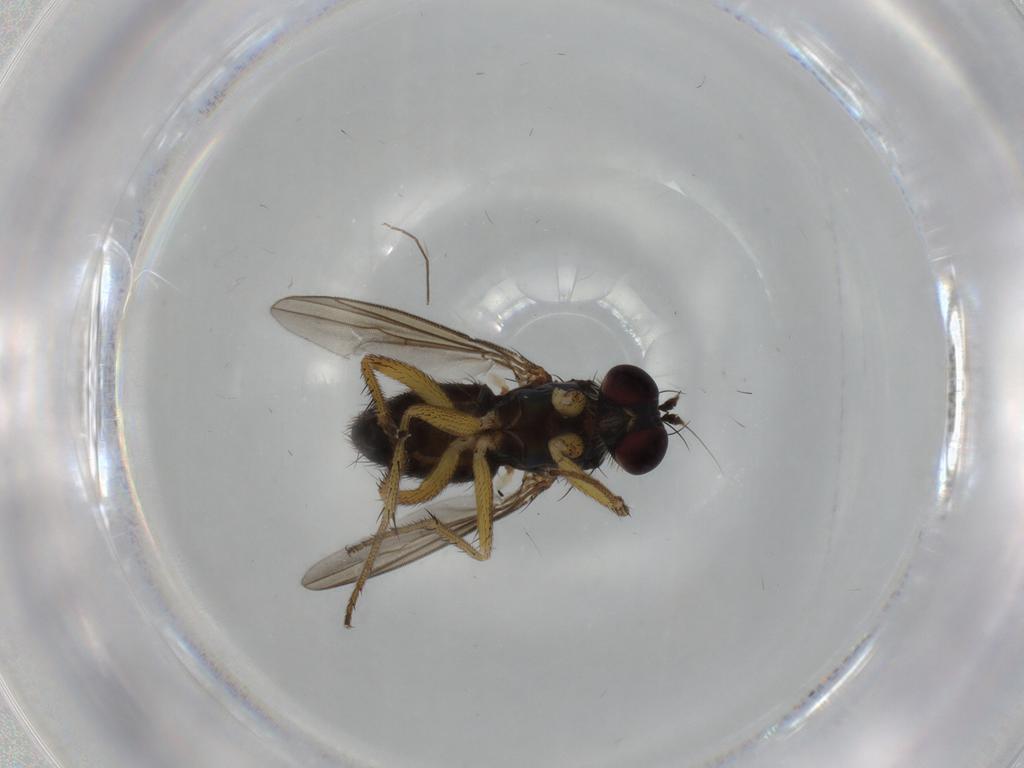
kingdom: Animalia
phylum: Arthropoda
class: Insecta
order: Diptera
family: Dolichopodidae
